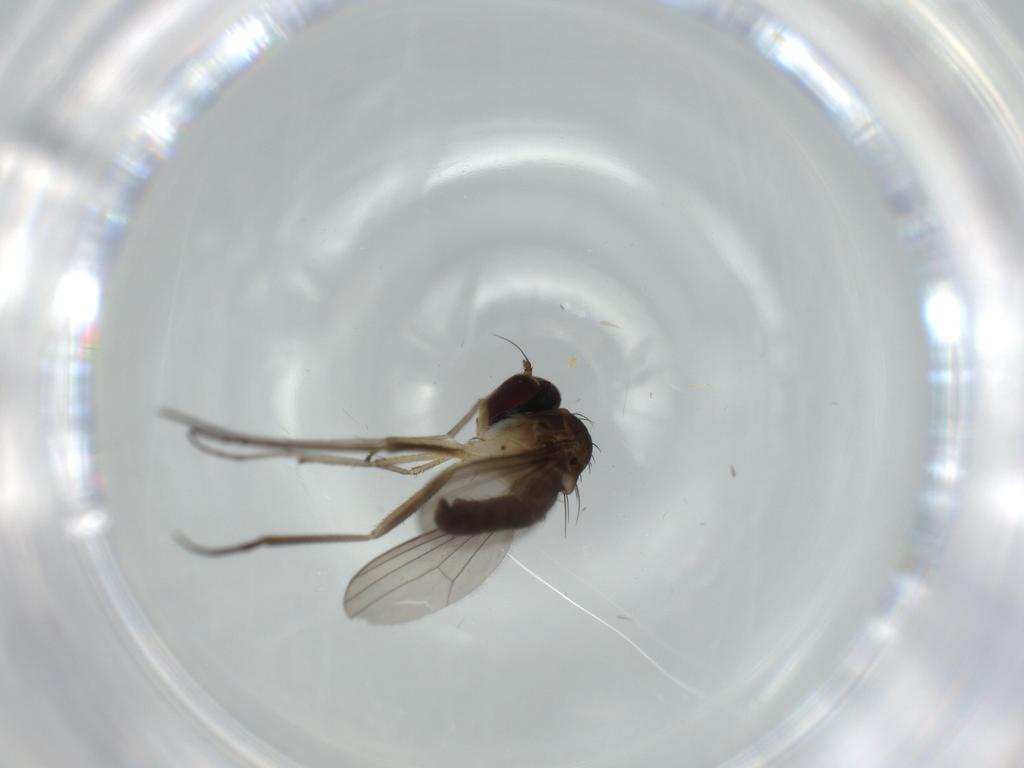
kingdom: Animalia
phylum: Arthropoda
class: Insecta
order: Diptera
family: Dolichopodidae
